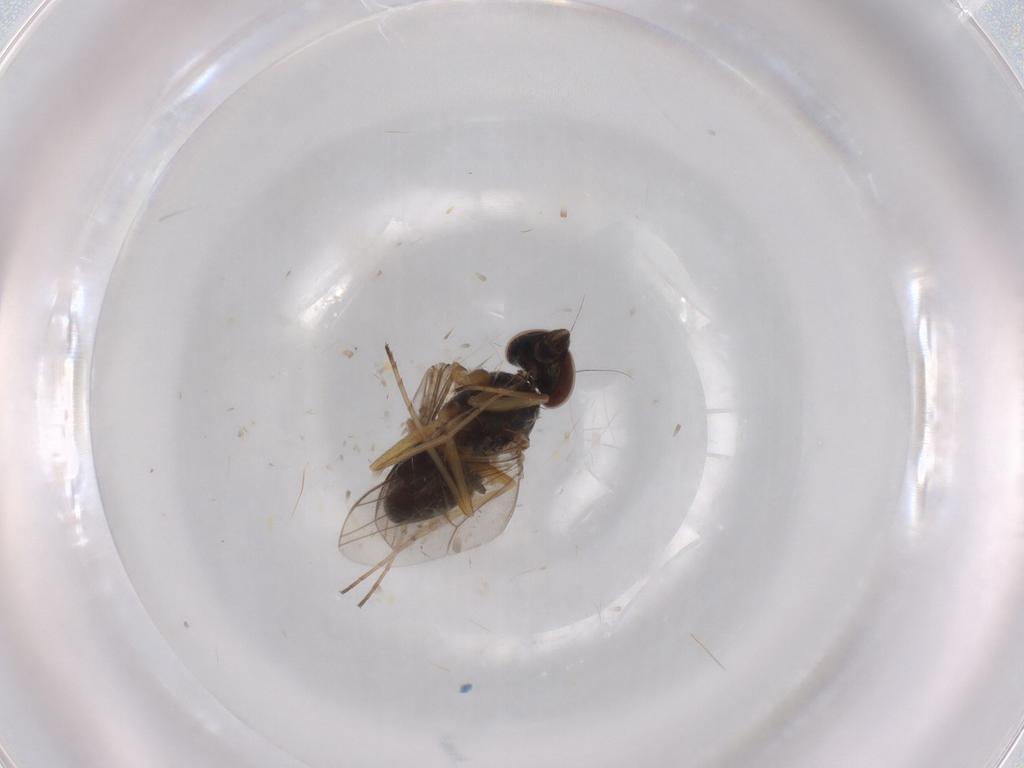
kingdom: Animalia
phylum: Arthropoda
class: Insecta
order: Diptera
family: Dolichopodidae
